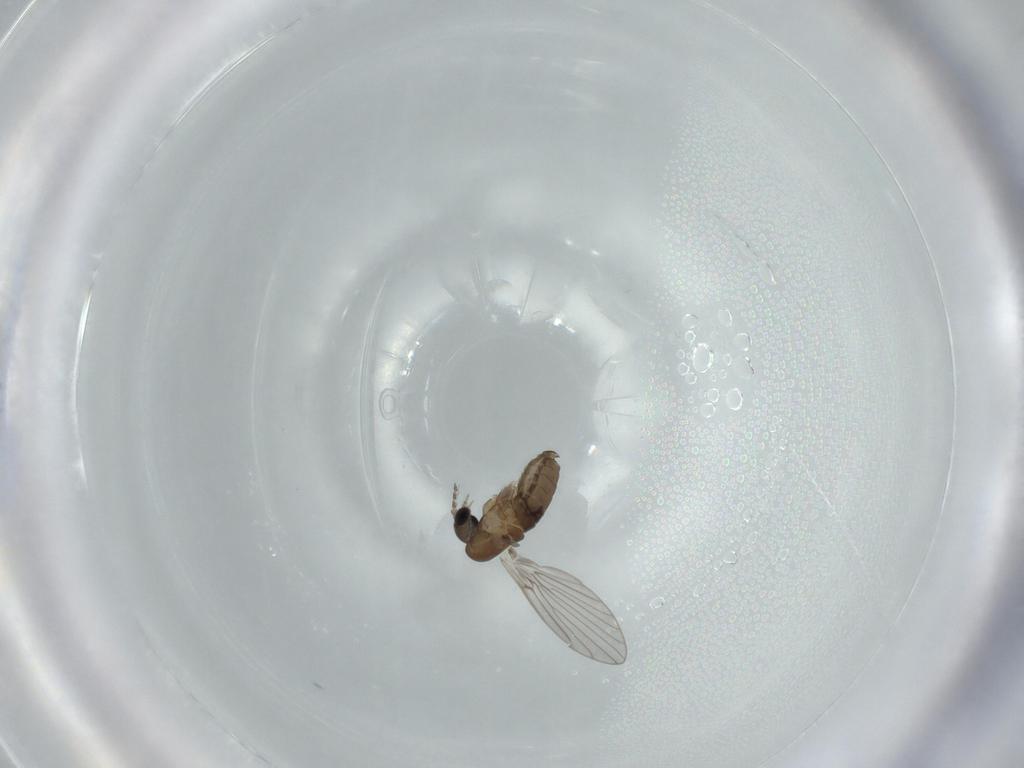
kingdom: Animalia
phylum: Arthropoda
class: Insecta
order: Diptera
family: Psychodidae
